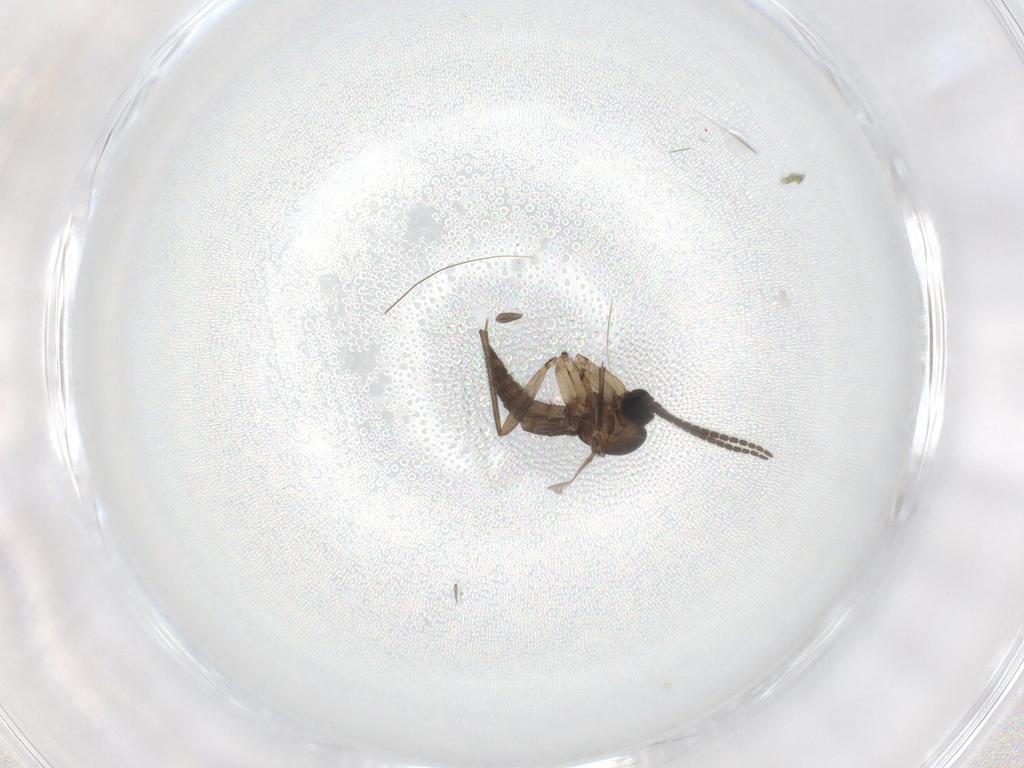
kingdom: Animalia
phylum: Arthropoda
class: Insecta
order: Diptera
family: Sciaridae
